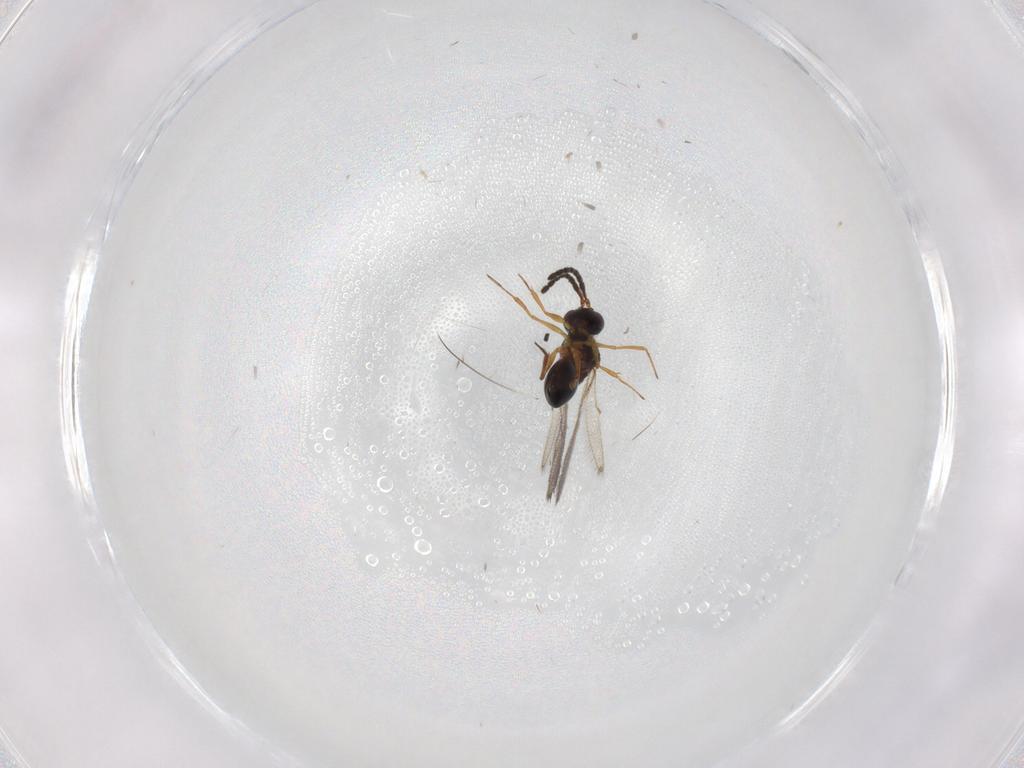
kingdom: Animalia
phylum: Arthropoda
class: Insecta
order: Hymenoptera
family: Figitidae
